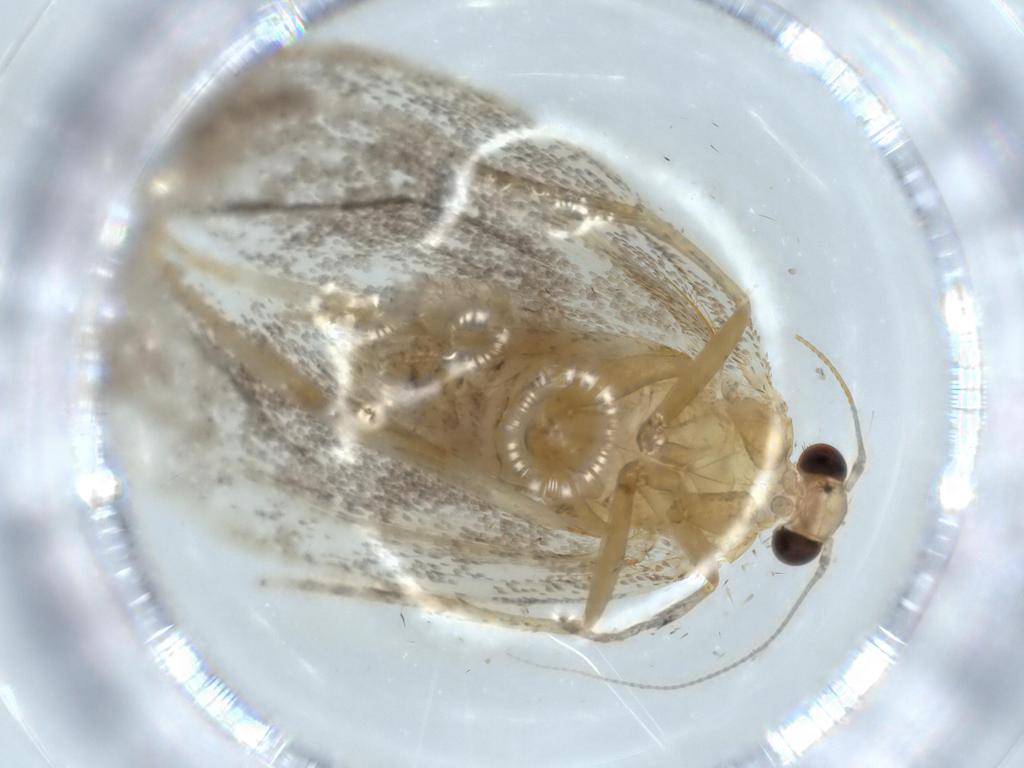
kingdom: Animalia
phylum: Arthropoda
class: Insecta
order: Lepidoptera
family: Tineidae
